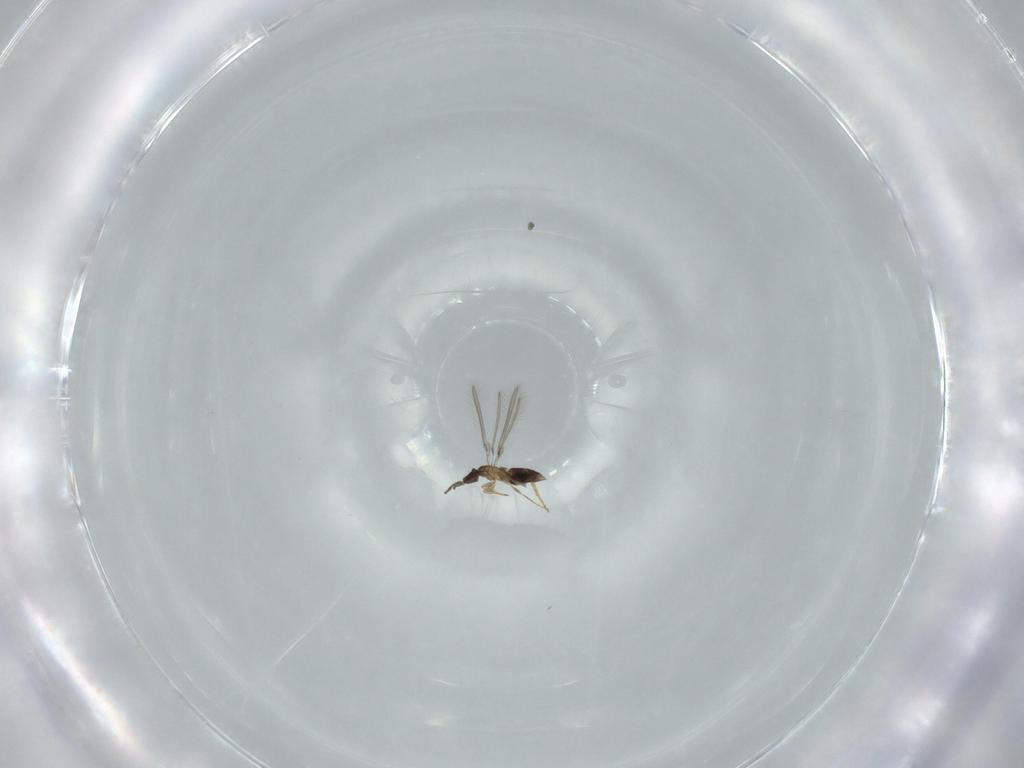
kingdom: Animalia
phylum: Arthropoda
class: Insecta
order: Hymenoptera
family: Mymaridae
